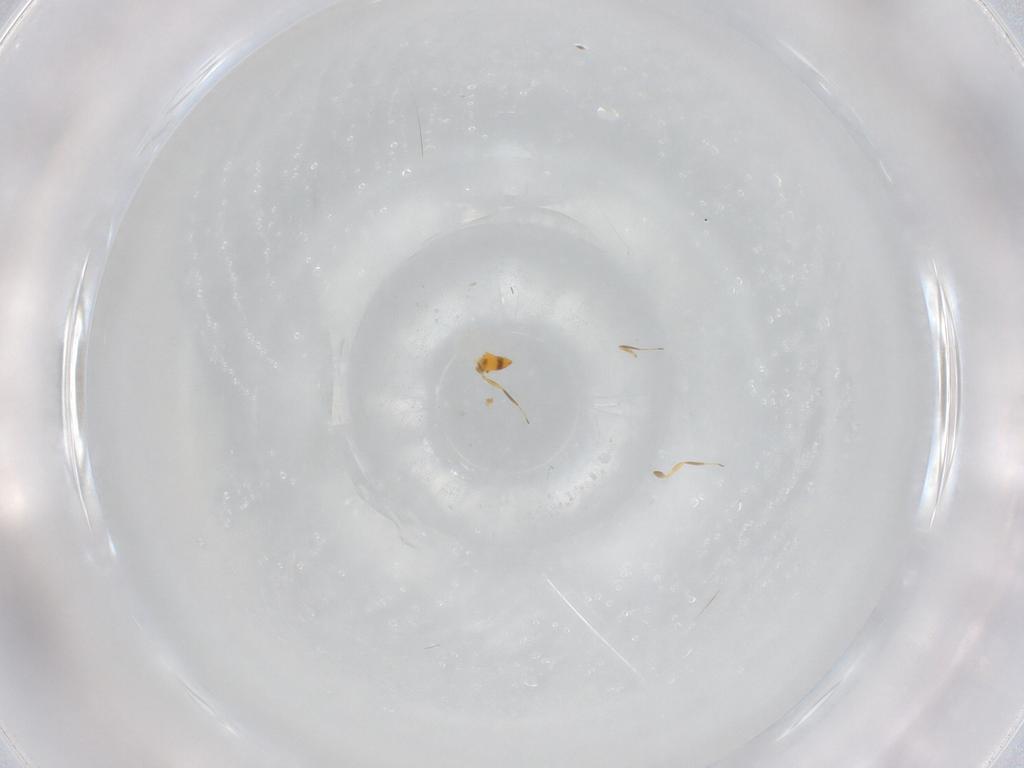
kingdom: Animalia
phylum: Arthropoda
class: Insecta
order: Hymenoptera
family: Aphelinidae
